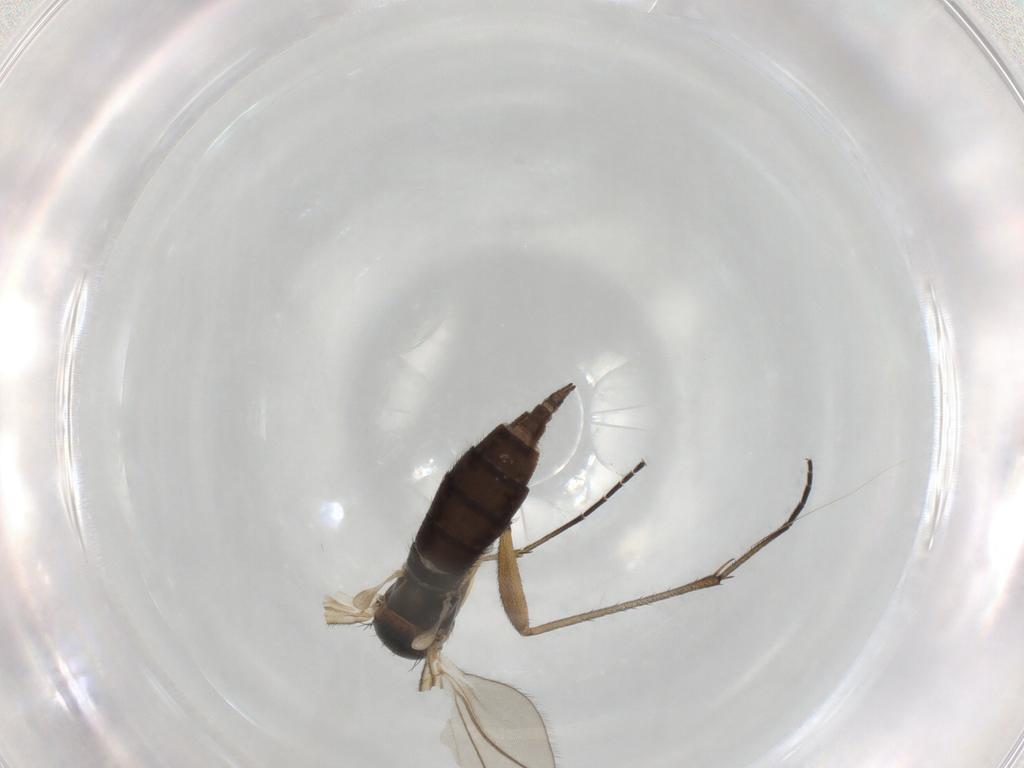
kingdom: Animalia
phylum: Arthropoda
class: Insecta
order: Diptera
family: Sciaridae
